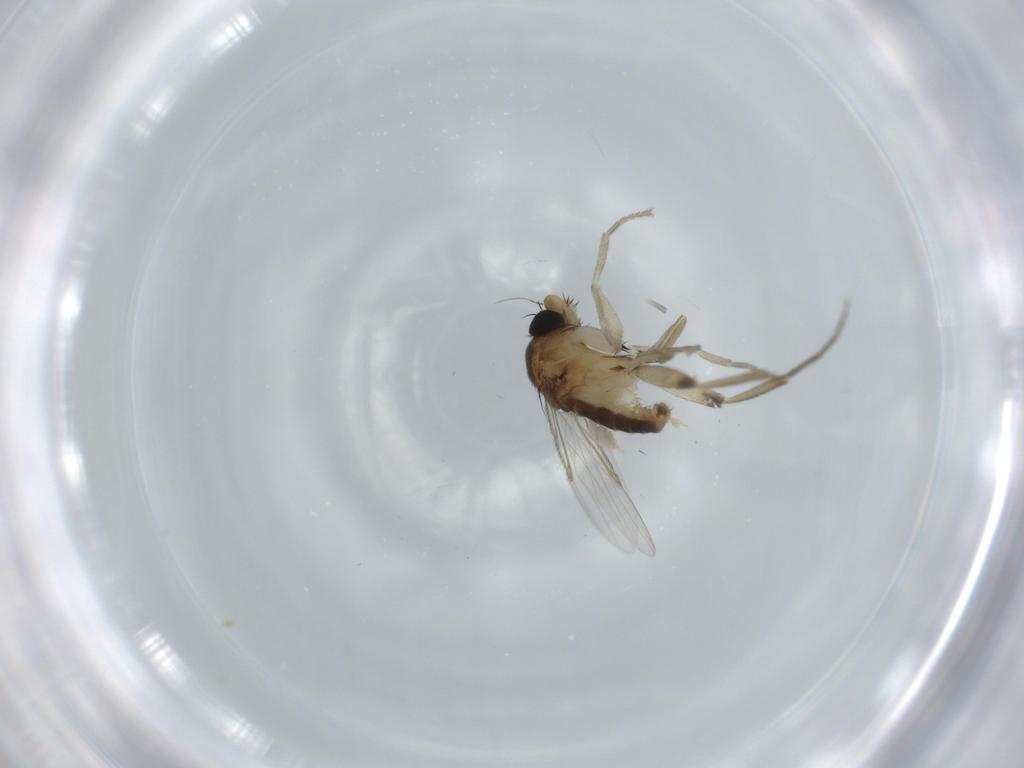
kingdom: Animalia
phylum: Arthropoda
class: Insecta
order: Diptera
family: Phoridae
